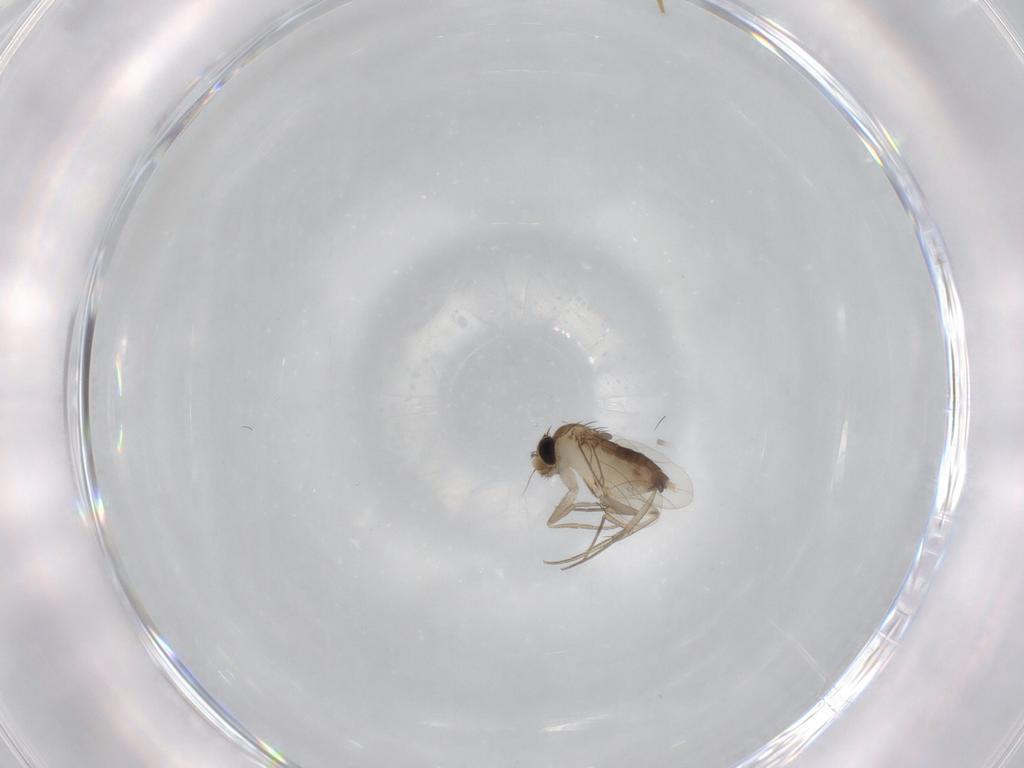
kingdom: Animalia
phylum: Arthropoda
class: Insecta
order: Diptera
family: Phoridae
